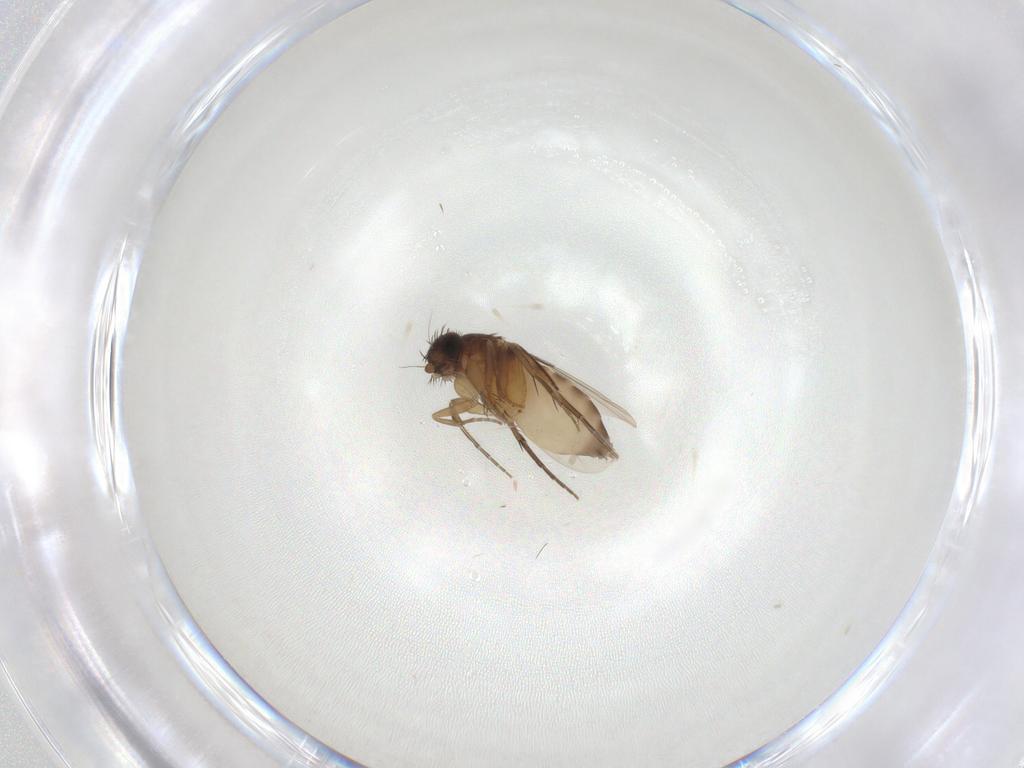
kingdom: Animalia
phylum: Arthropoda
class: Insecta
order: Diptera
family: Phoridae
